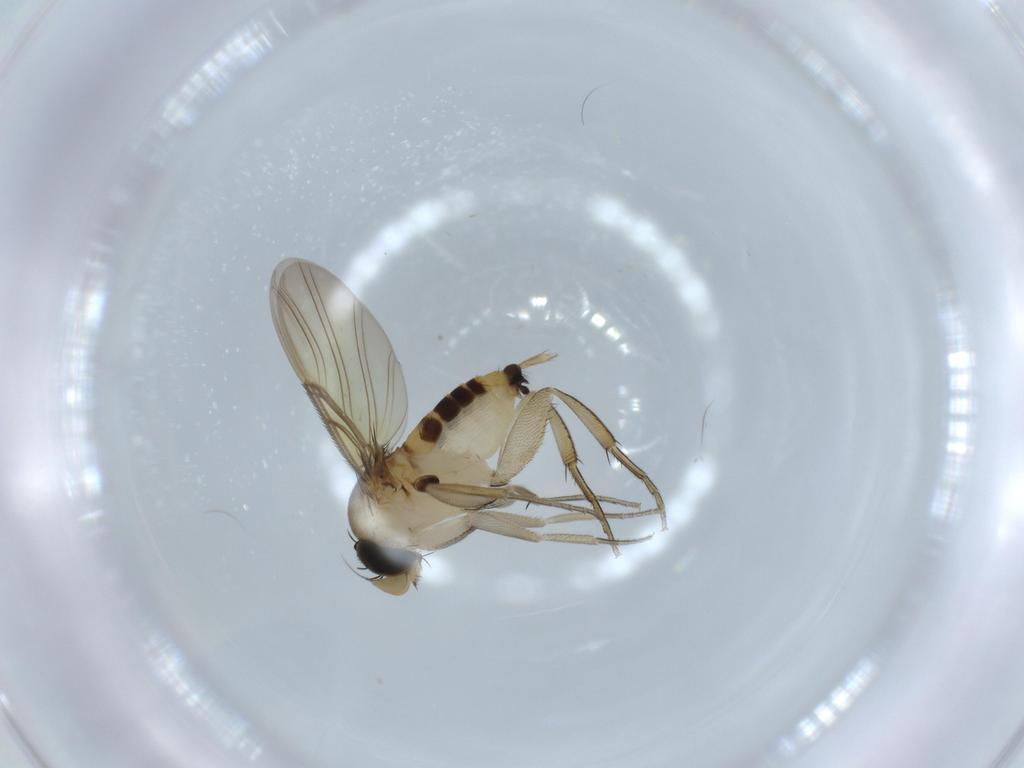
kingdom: Animalia
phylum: Arthropoda
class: Insecta
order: Diptera
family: Phoridae
